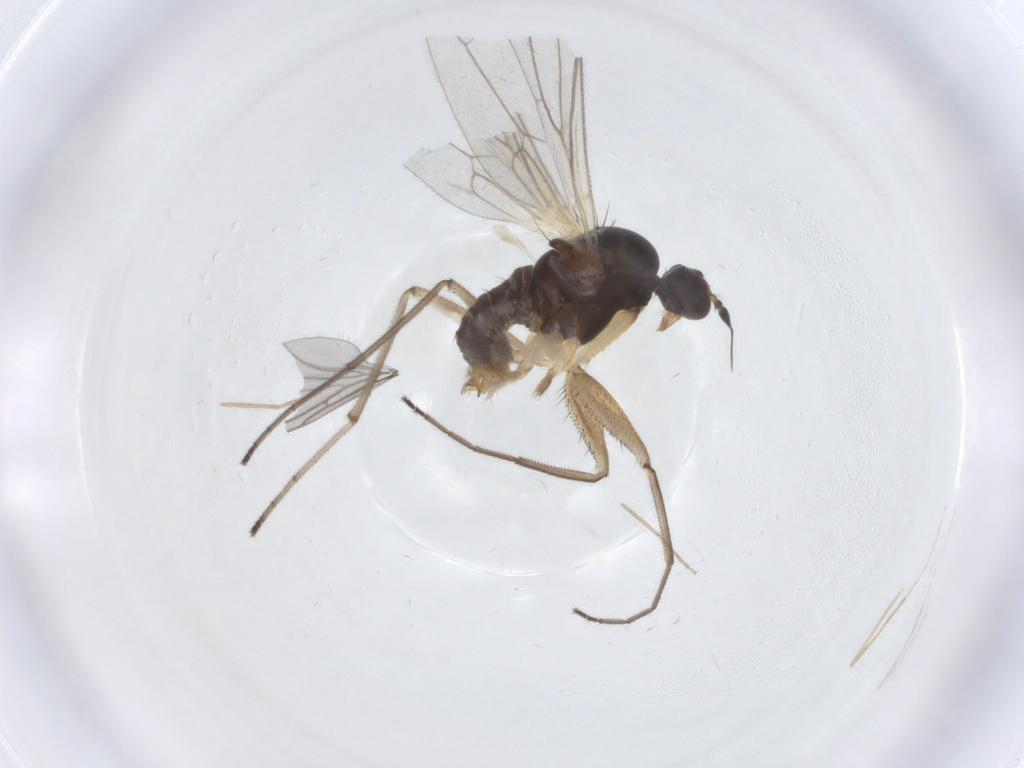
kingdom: Animalia
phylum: Arthropoda
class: Insecta
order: Diptera
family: Empididae
